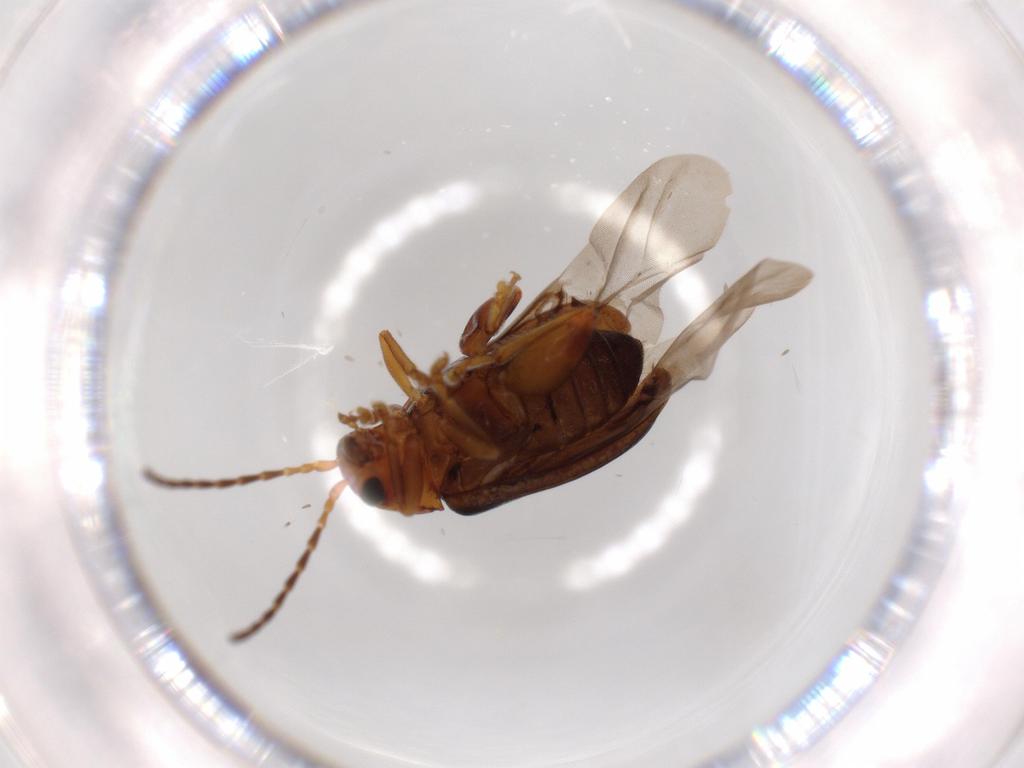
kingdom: Animalia
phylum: Arthropoda
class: Insecta
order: Coleoptera
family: Chrysomelidae
